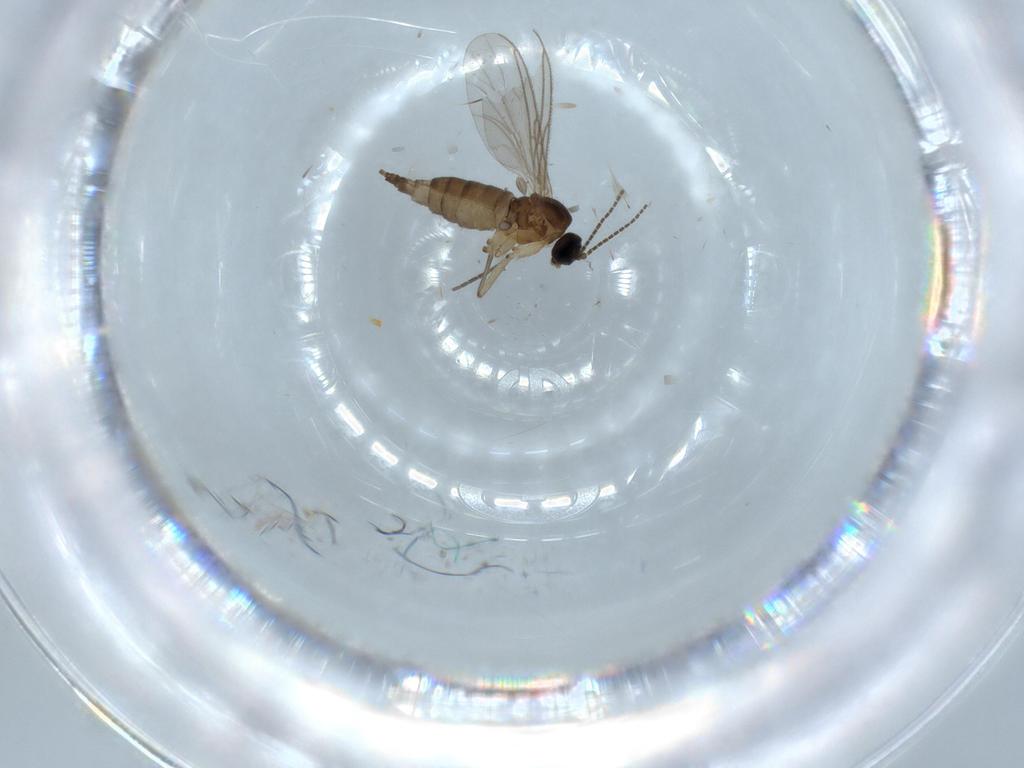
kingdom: Animalia
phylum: Arthropoda
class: Insecta
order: Diptera
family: Sciaridae
